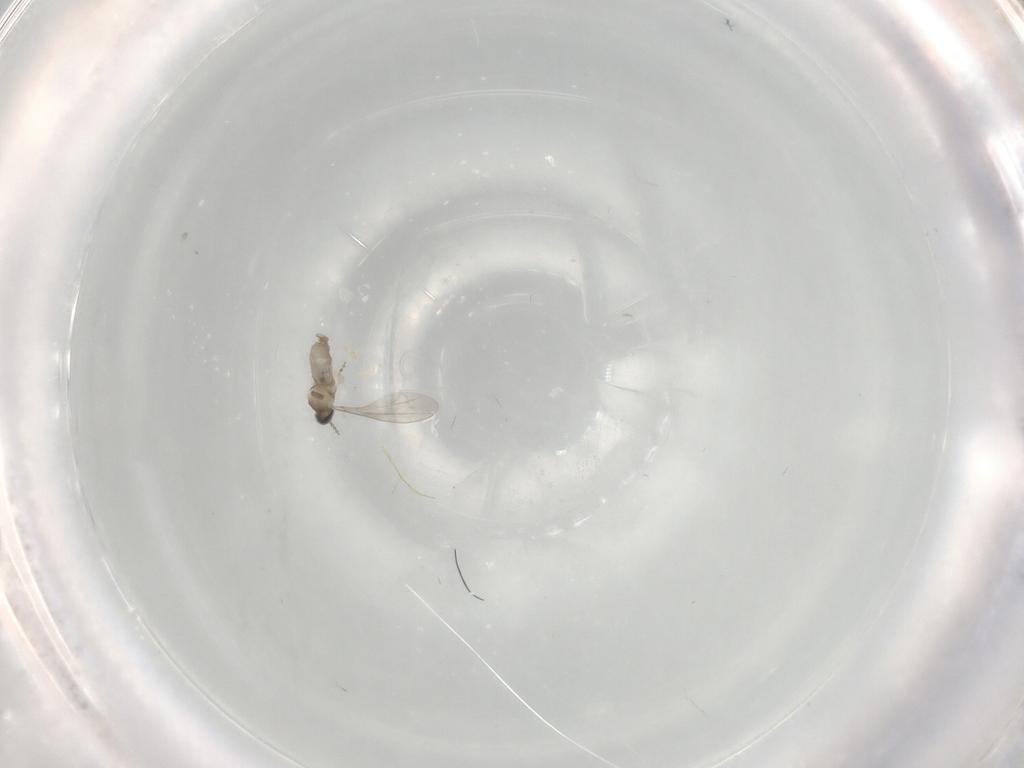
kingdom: Animalia
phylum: Arthropoda
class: Insecta
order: Diptera
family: Cecidomyiidae
